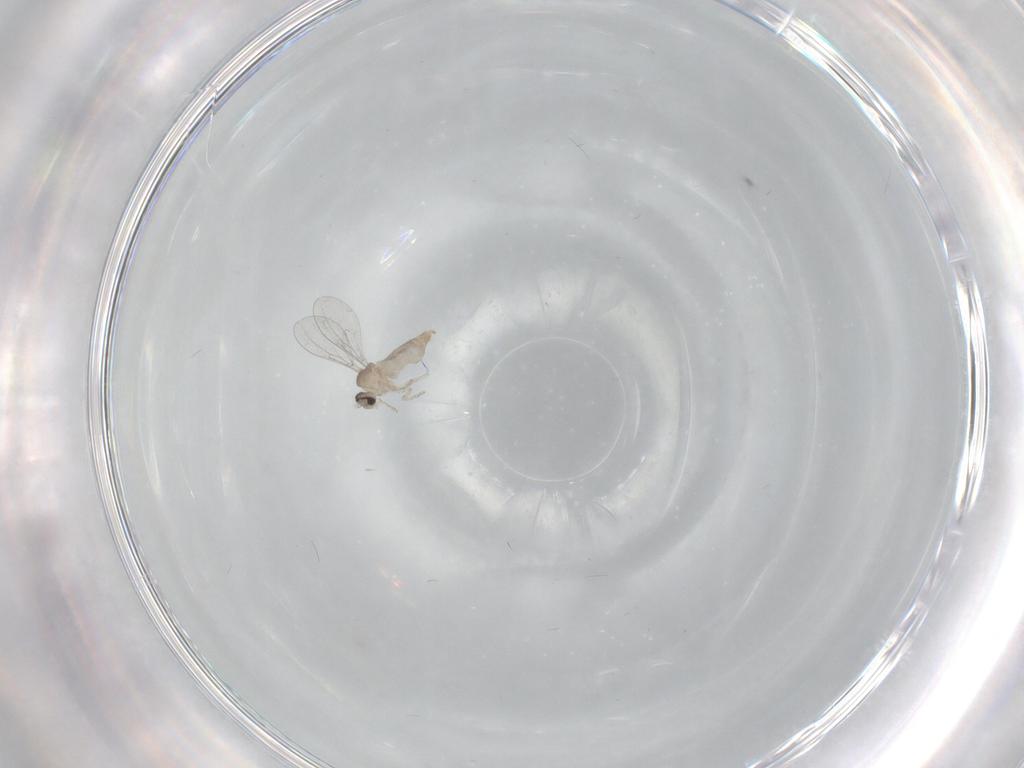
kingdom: Animalia
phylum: Arthropoda
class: Insecta
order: Diptera
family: Cecidomyiidae
